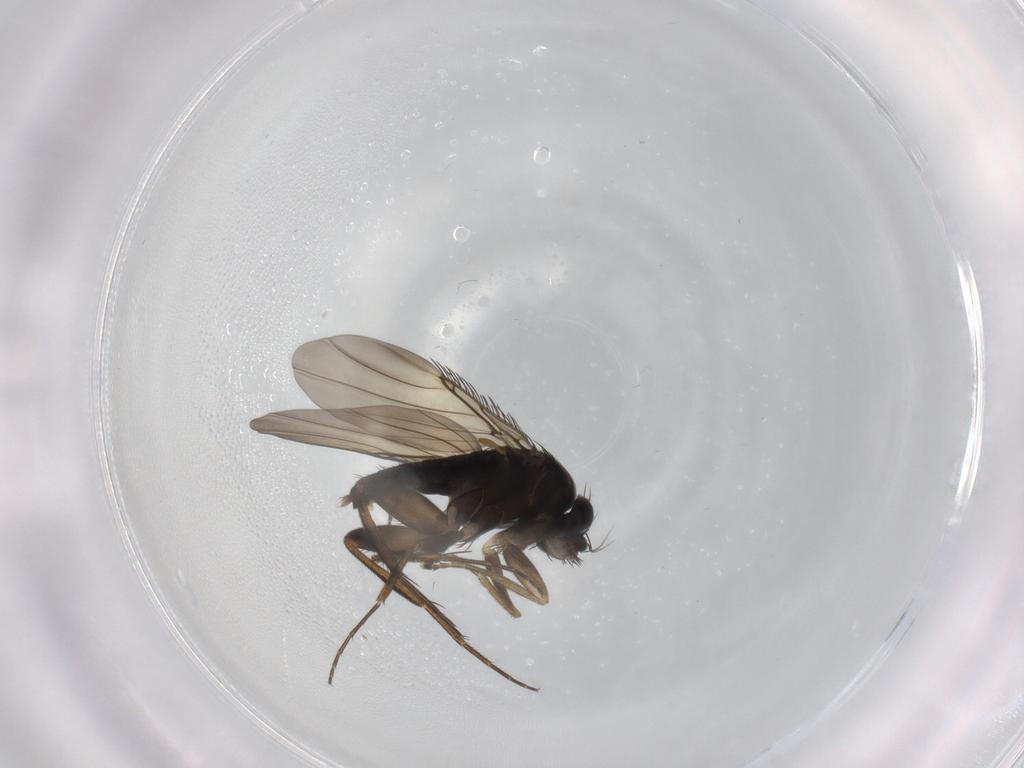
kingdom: Animalia
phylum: Arthropoda
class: Insecta
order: Diptera
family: Phoridae
